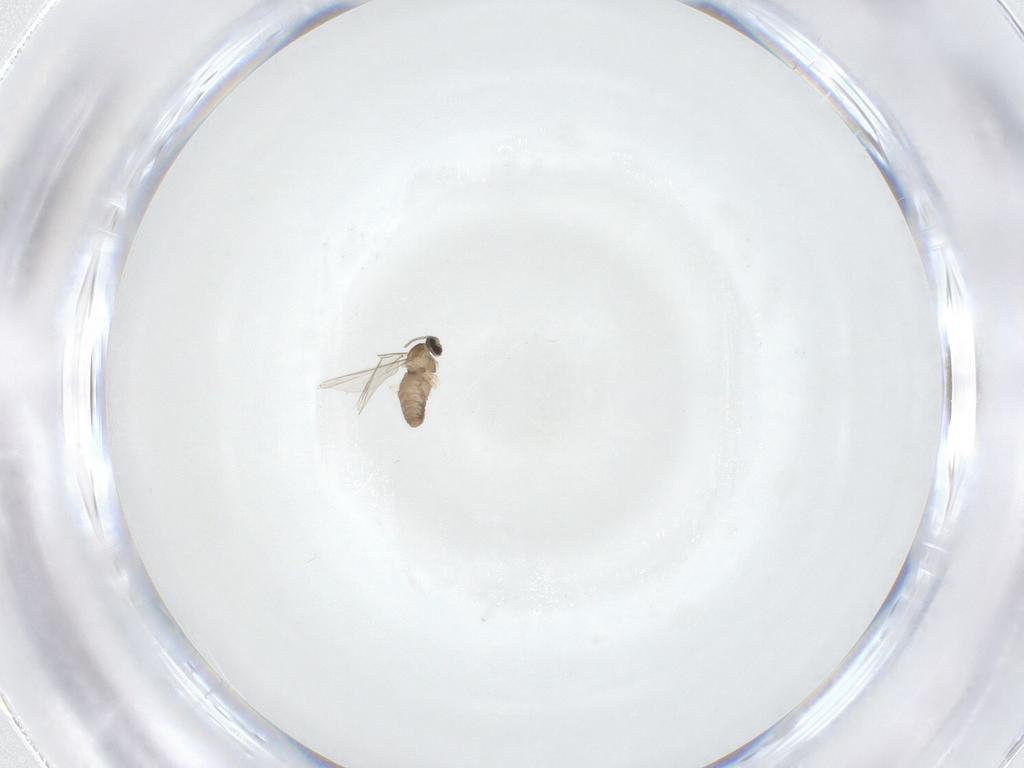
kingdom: Animalia
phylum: Arthropoda
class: Insecta
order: Diptera
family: Cecidomyiidae
